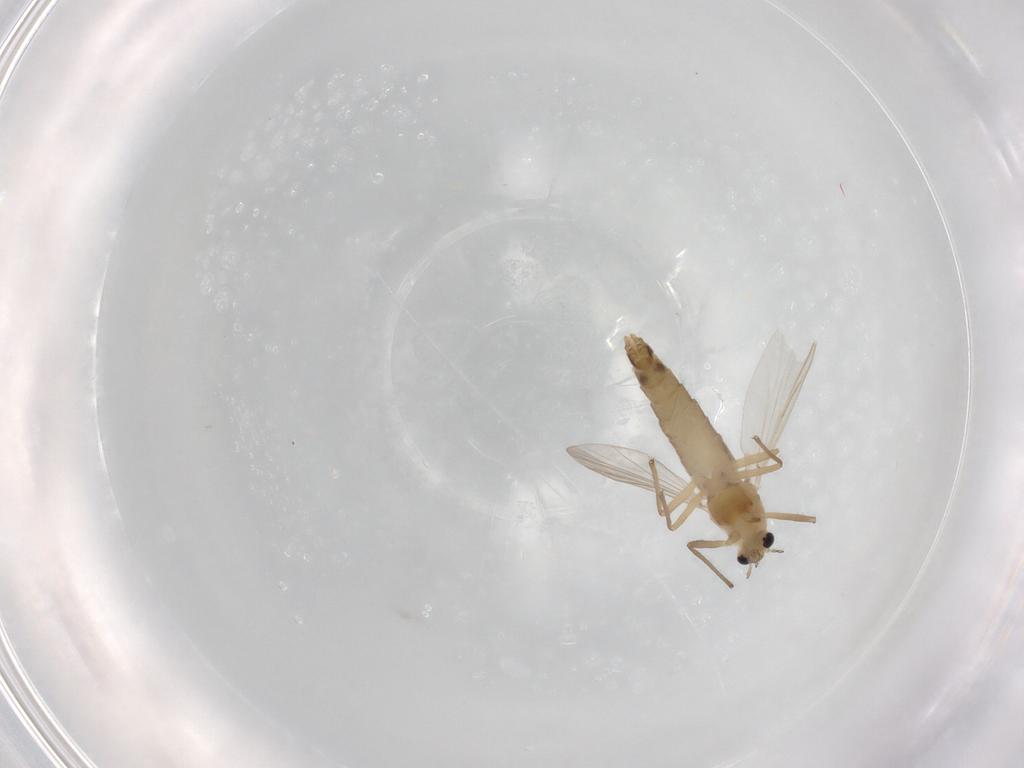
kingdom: Animalia
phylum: Arthropoda
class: Insecta
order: Diptera
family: Chironomidae
